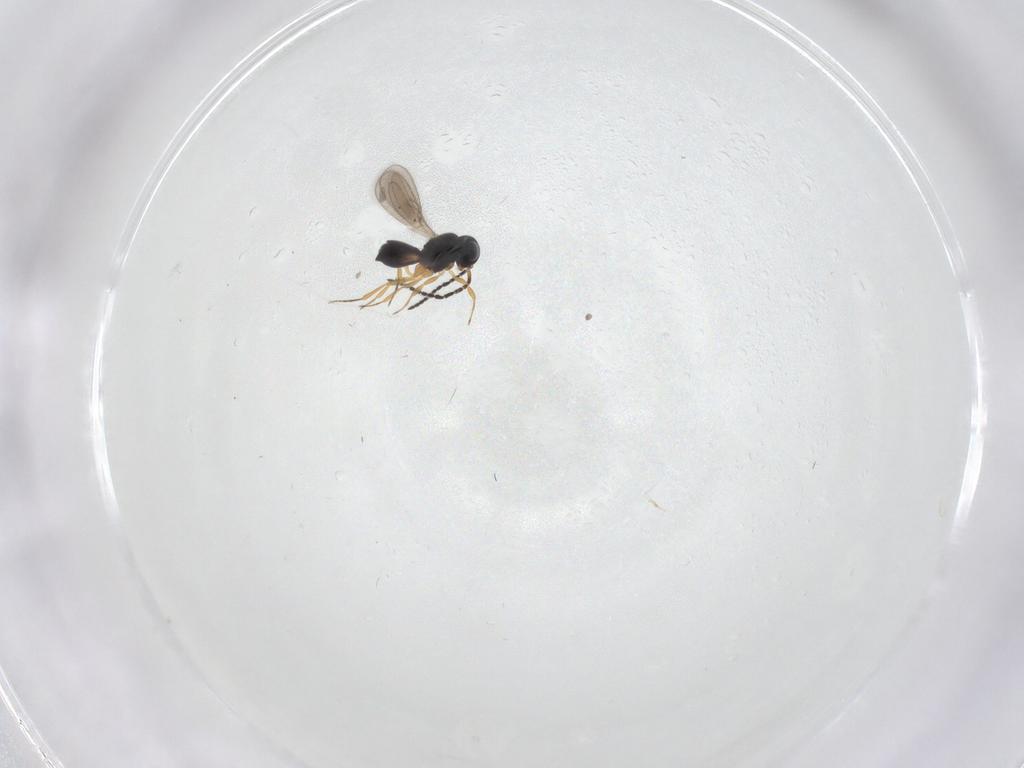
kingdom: Animalia
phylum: Arthropoda
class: Insecta
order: Hymenoptera
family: Scelionidae
